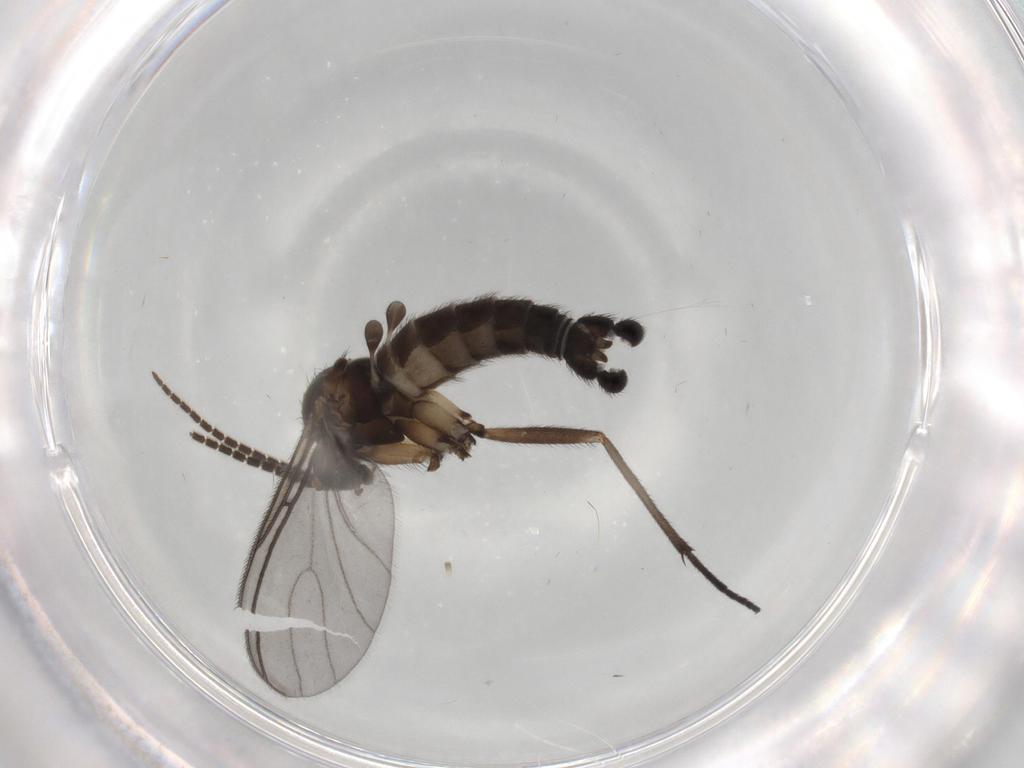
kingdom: Animalia
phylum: Arthropoda
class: Insecta
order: Diptera
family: Sciaridae
